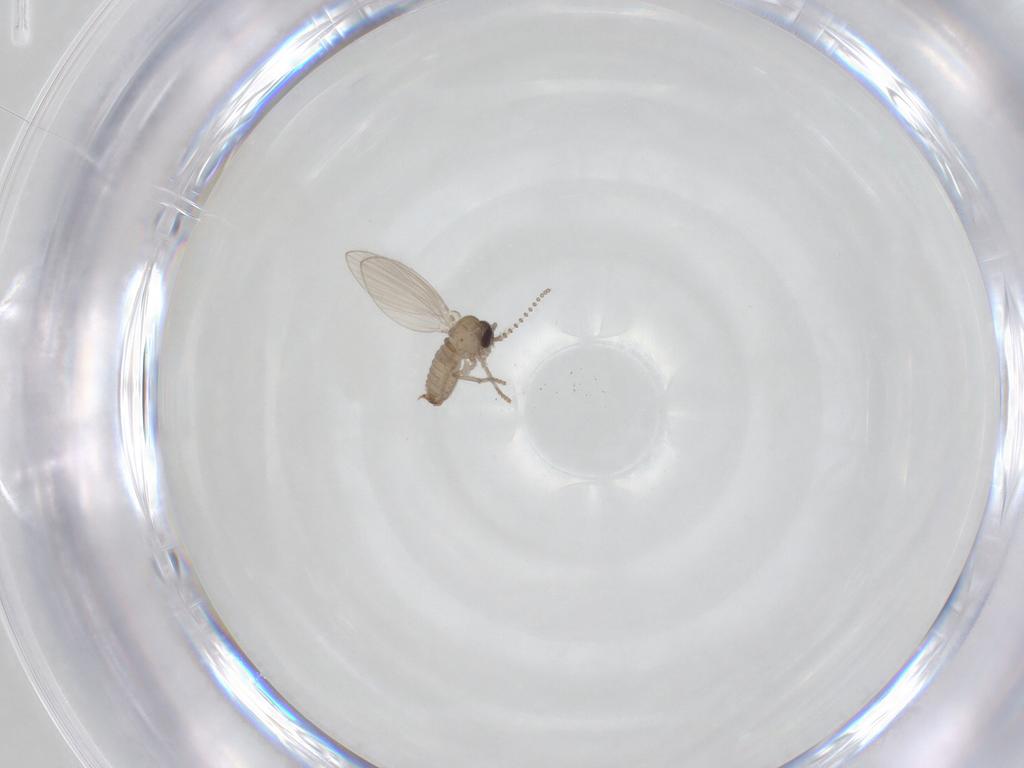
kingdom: Animalia
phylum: Arthropoda
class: Insecta
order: Diptera
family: Psychodidae
